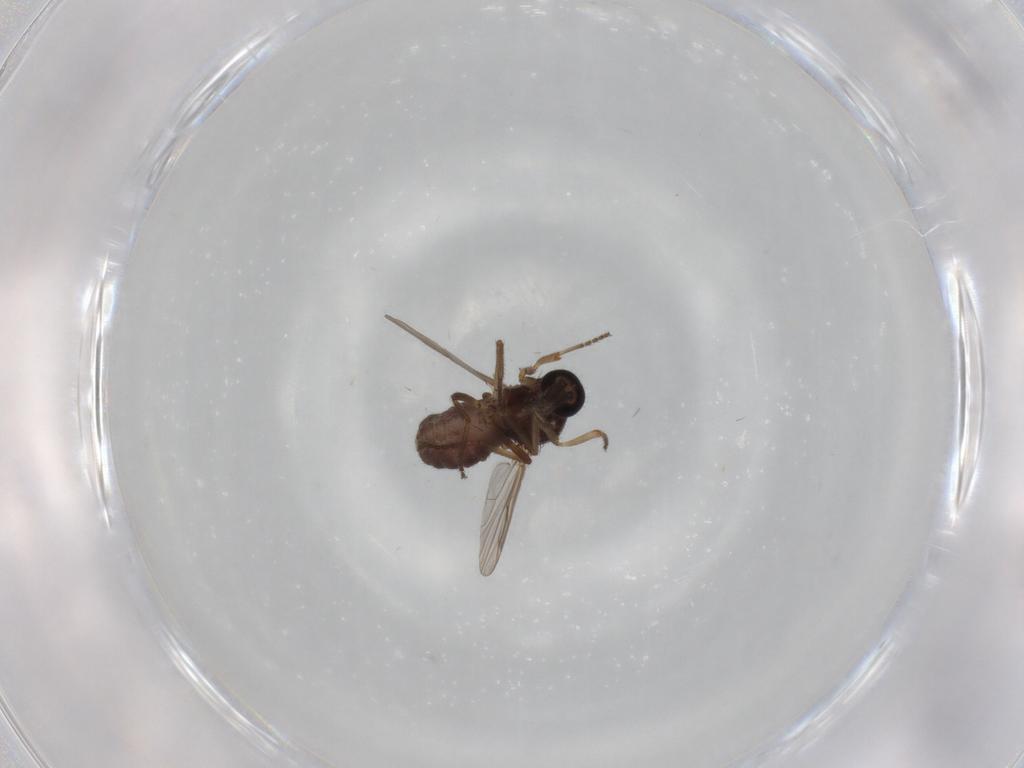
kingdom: Animalia
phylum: Arthropoda
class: Insecta
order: Diptera
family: Ceratopogonidae
